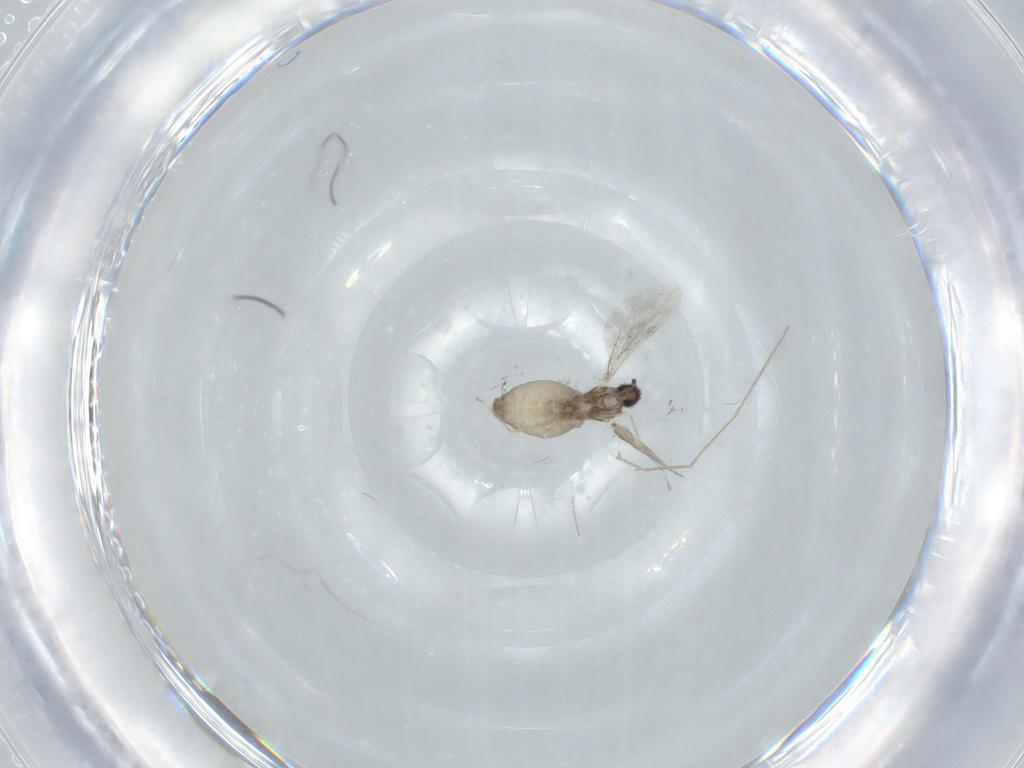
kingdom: Animalia
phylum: Arthropoda
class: Insecta
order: Diptera
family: Cecidomyiidae
